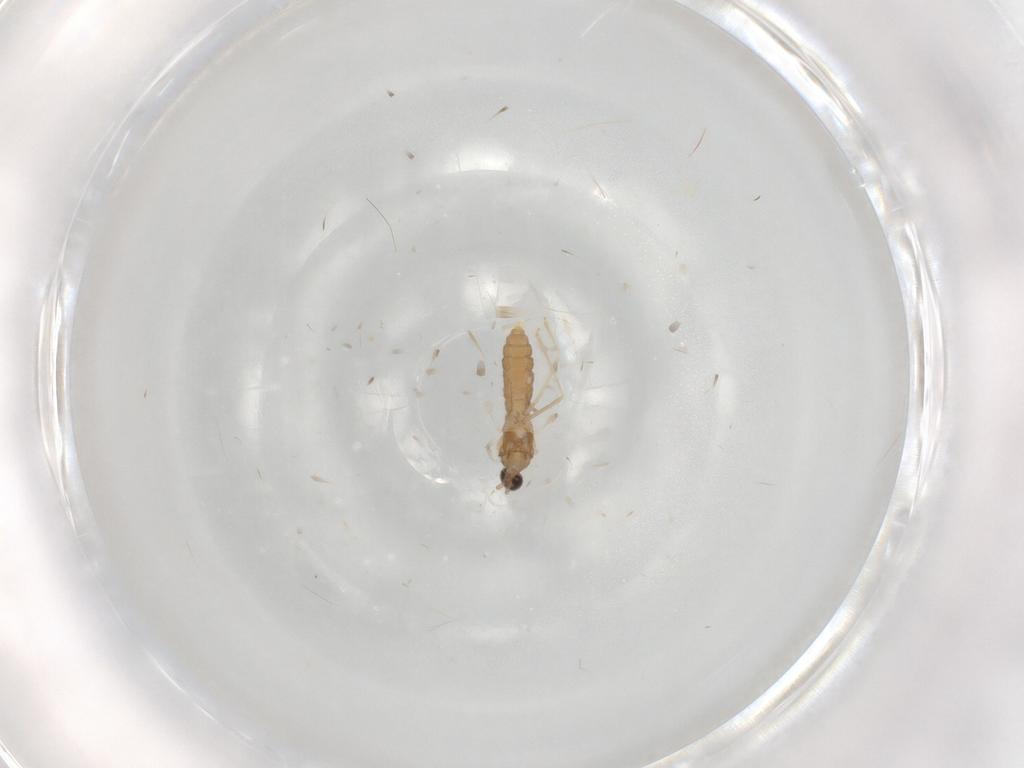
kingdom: Animalia
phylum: Arthropoda
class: Insecta
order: Diptera
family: Cecidomyiidae
